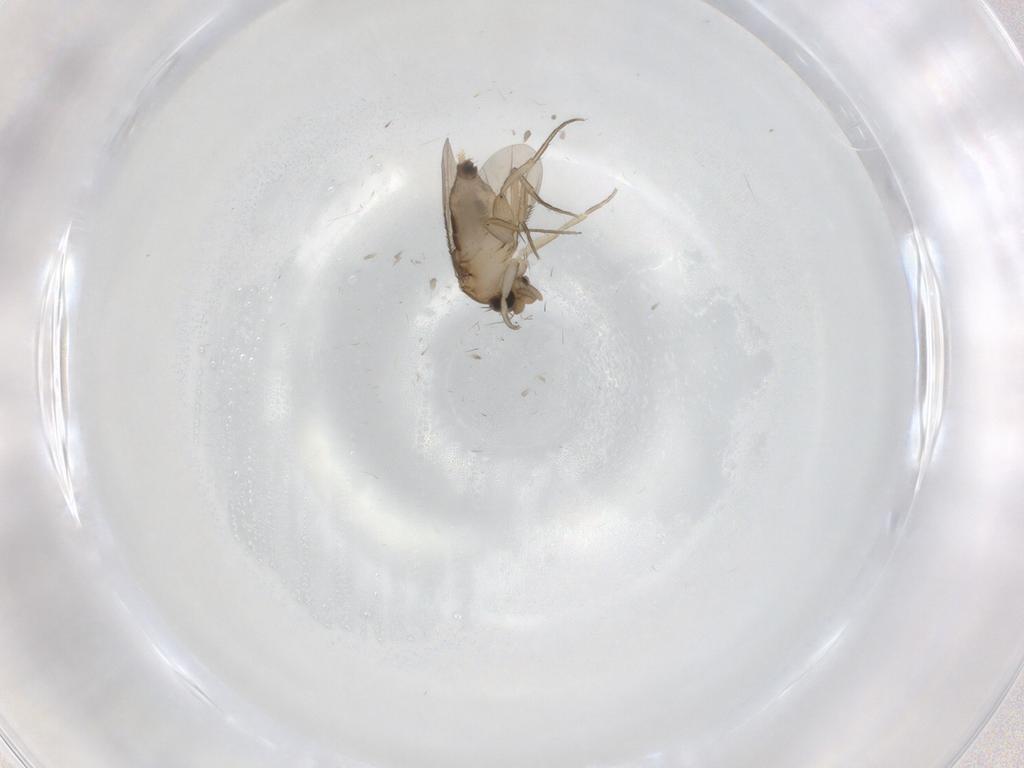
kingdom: Animalia
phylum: Arthropoda
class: Insecta
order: Diptera
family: Phoridae
